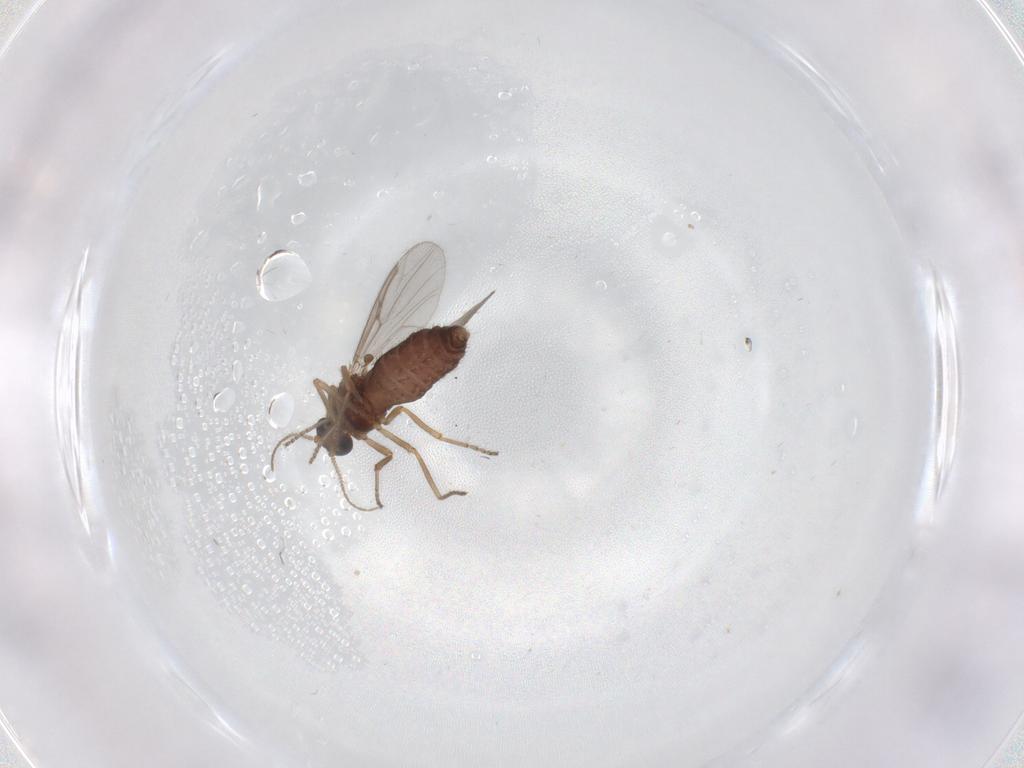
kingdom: Animalia
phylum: Arthropoda
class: Insecta
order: Diptera
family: Ceratopogonidae
